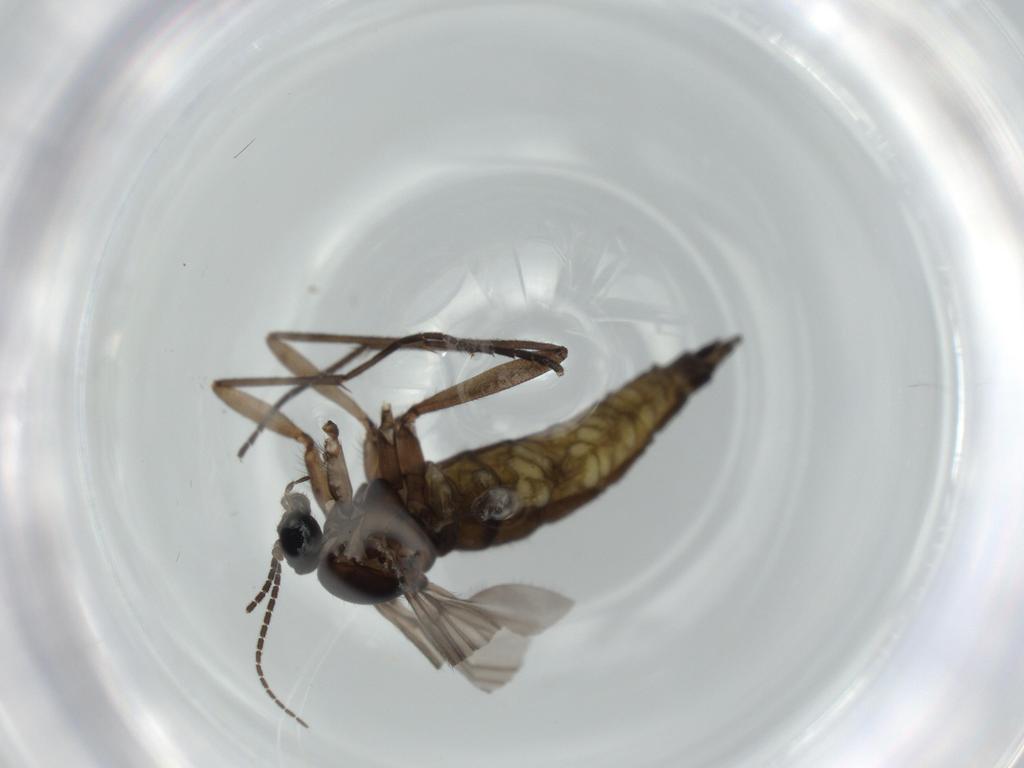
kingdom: Animalia
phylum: Arthropoda
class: Insecta
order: Diptera
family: Sciaridae
